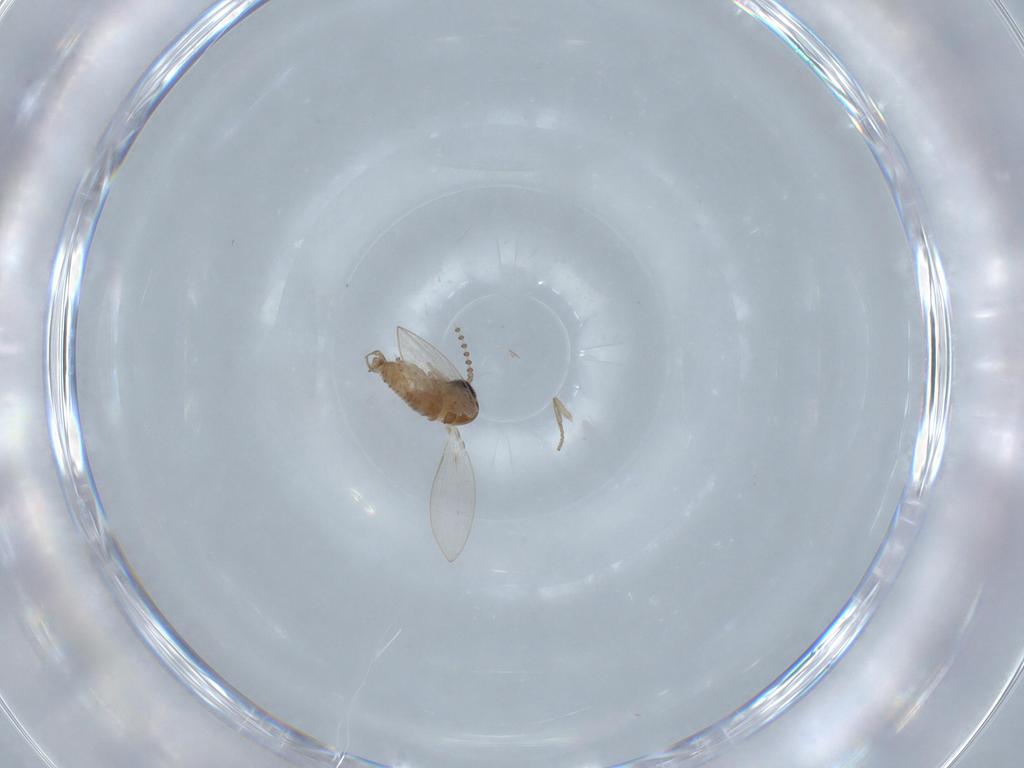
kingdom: Animalia
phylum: Arthropoda
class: Insecta
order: Diptera
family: Psychodidae
